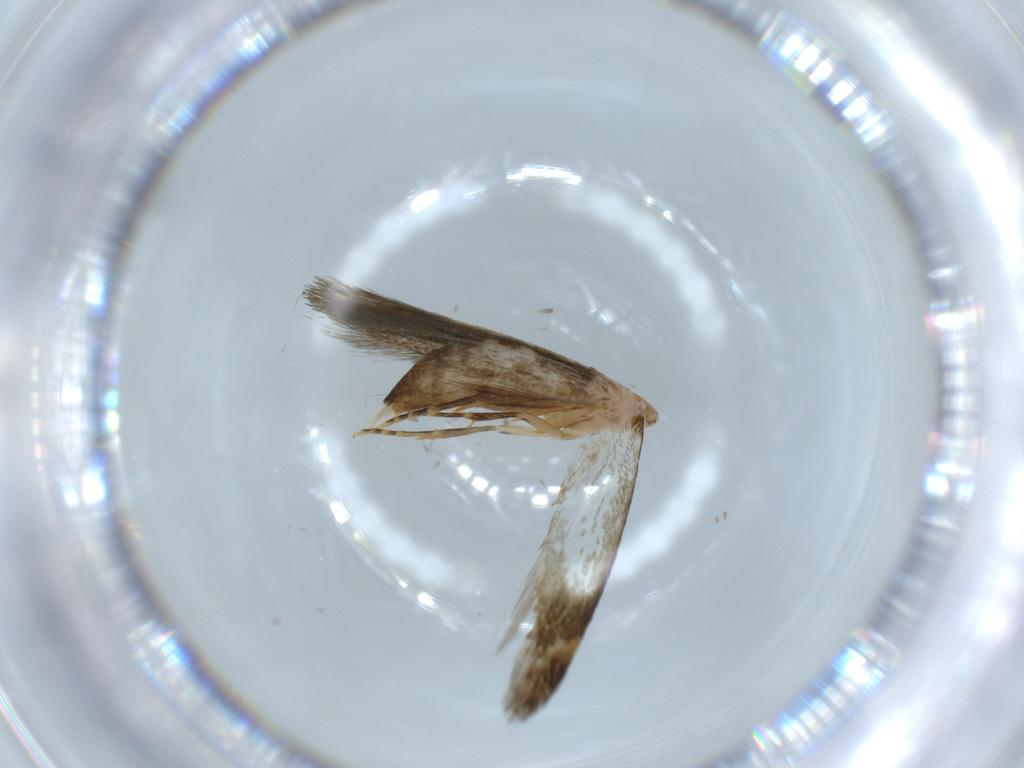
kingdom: Animalia
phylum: Arthropoda
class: Insecta
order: Lepidoptera
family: Tineidae
